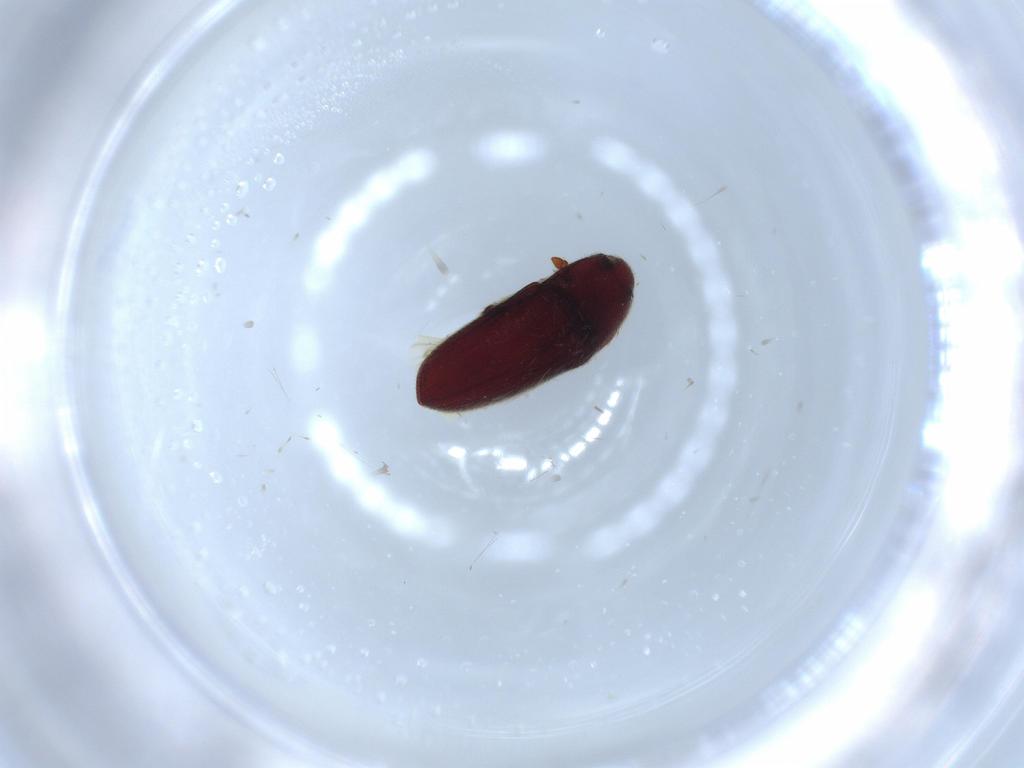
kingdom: Animalia
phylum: Arthropoda
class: Insecta
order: Coleoptera
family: Throscidae
